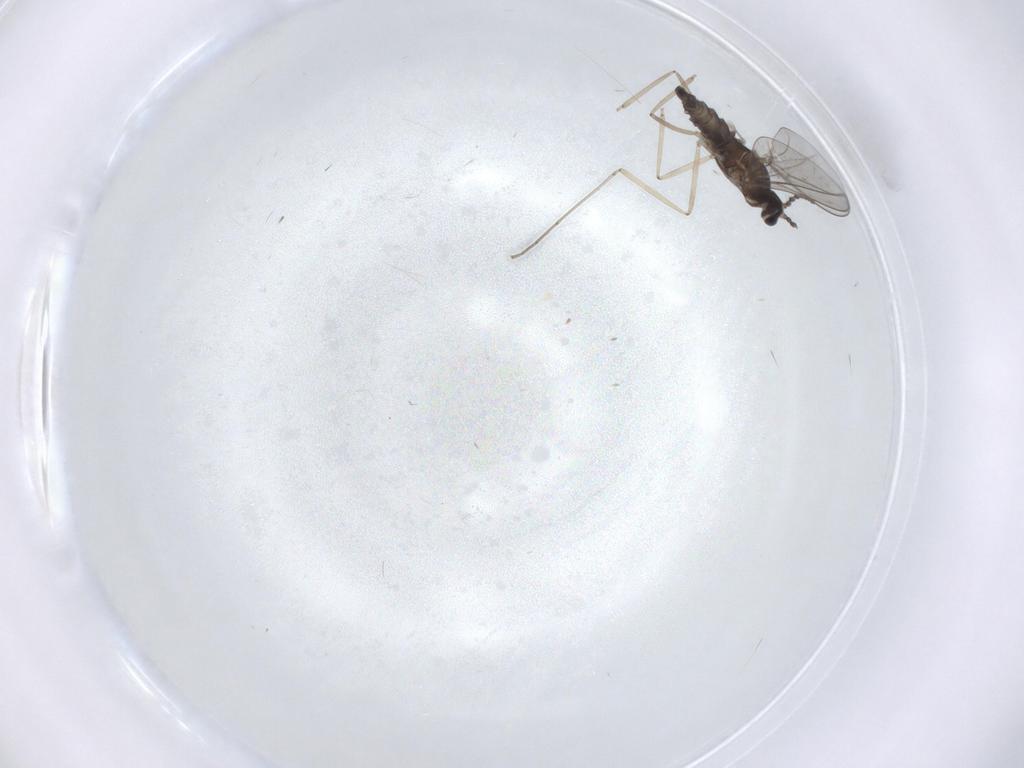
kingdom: Animalia
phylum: Arthropoda
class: Insecta
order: Diptera
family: Cecidomyiidae
